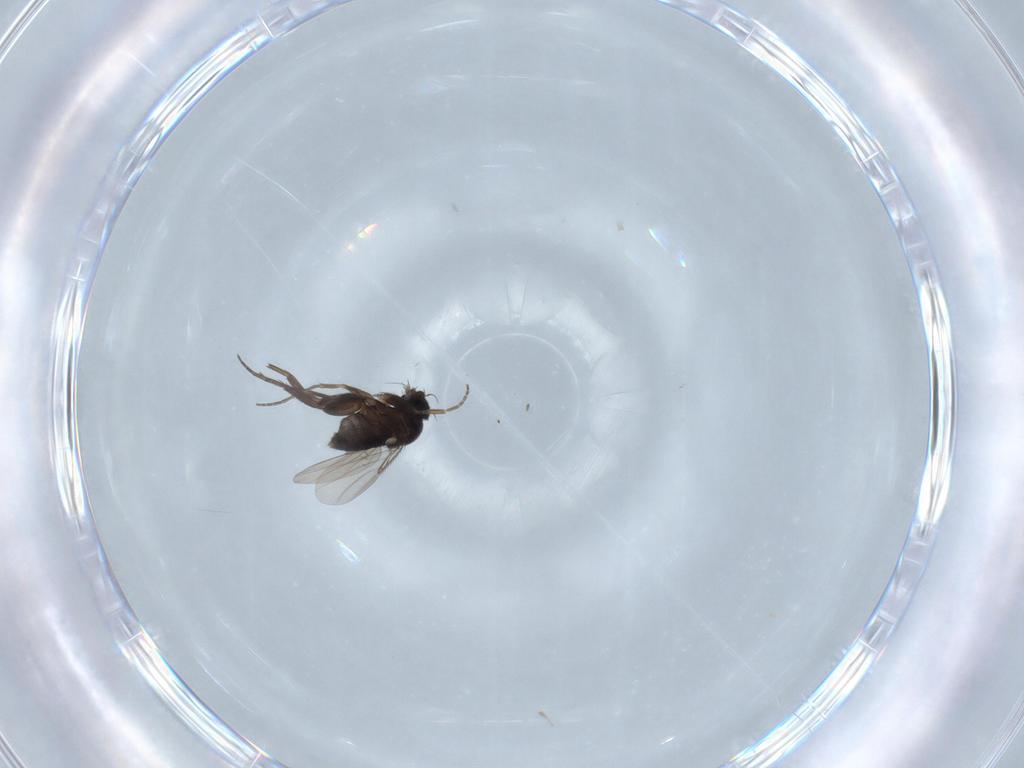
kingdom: Animalia
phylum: Arthropoda
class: Insecta
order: Diptera
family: Phoridae
